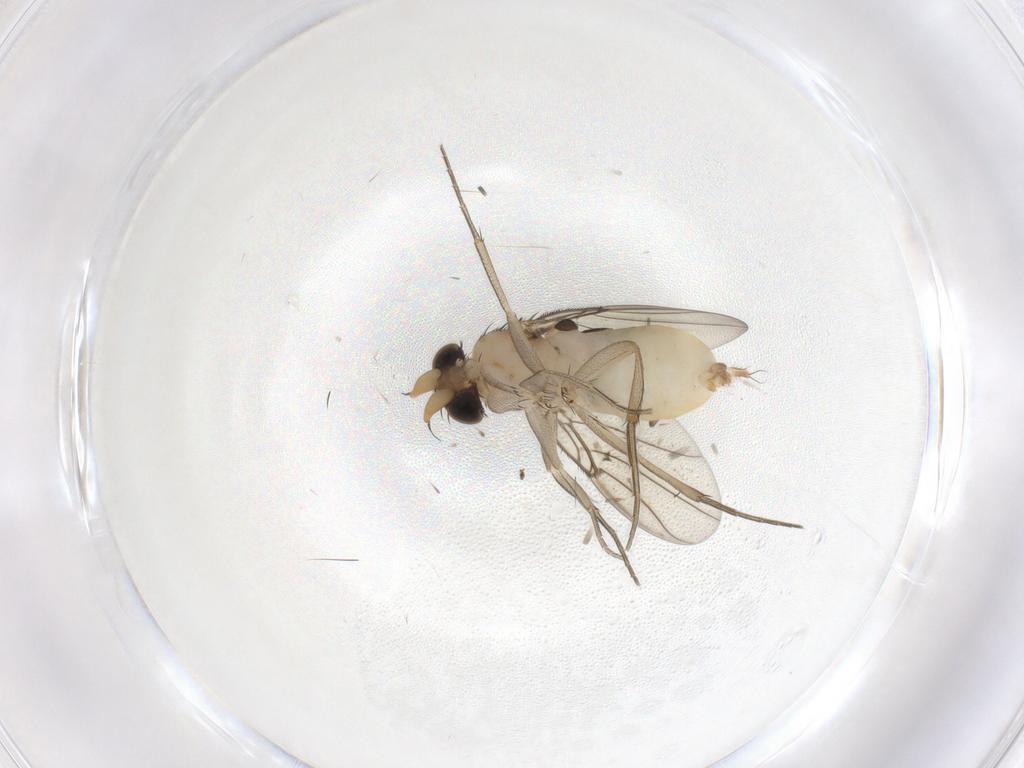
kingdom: Animalia
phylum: Arthropoda
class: Insecta
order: Diptera
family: Phoridae
